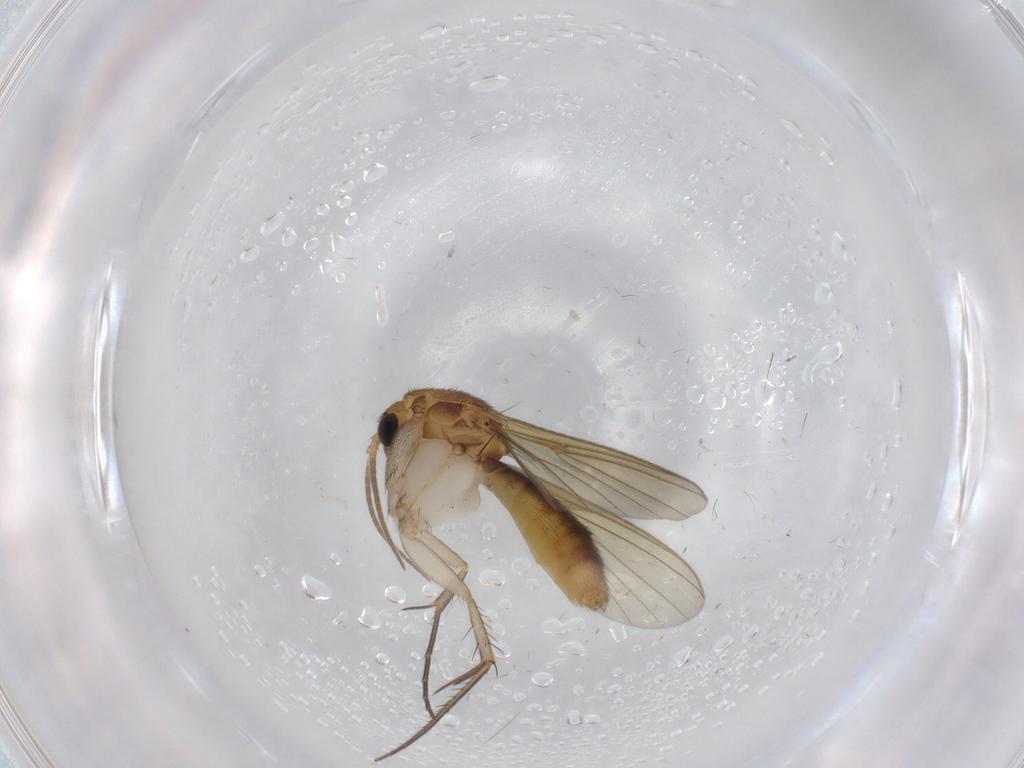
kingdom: Animalia
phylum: Arthropoda
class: Insecta
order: Diptera
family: Mycetophilidae
